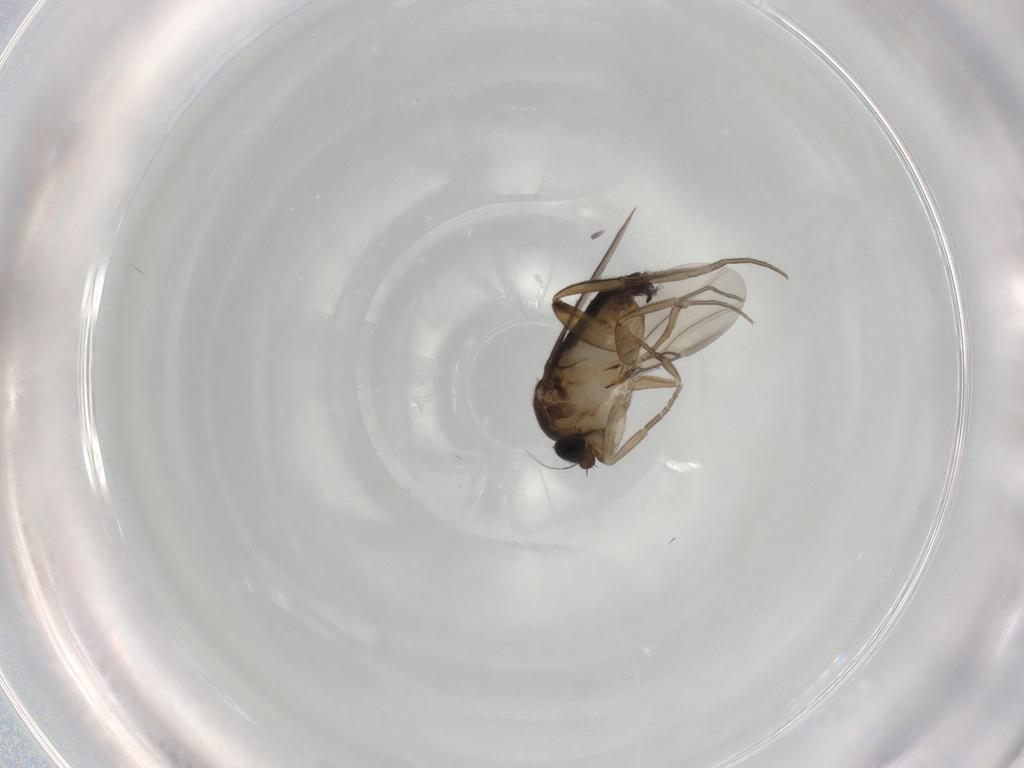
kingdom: Animalia
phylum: Arthropoda
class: Insecta
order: Diptera
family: Phoridae
